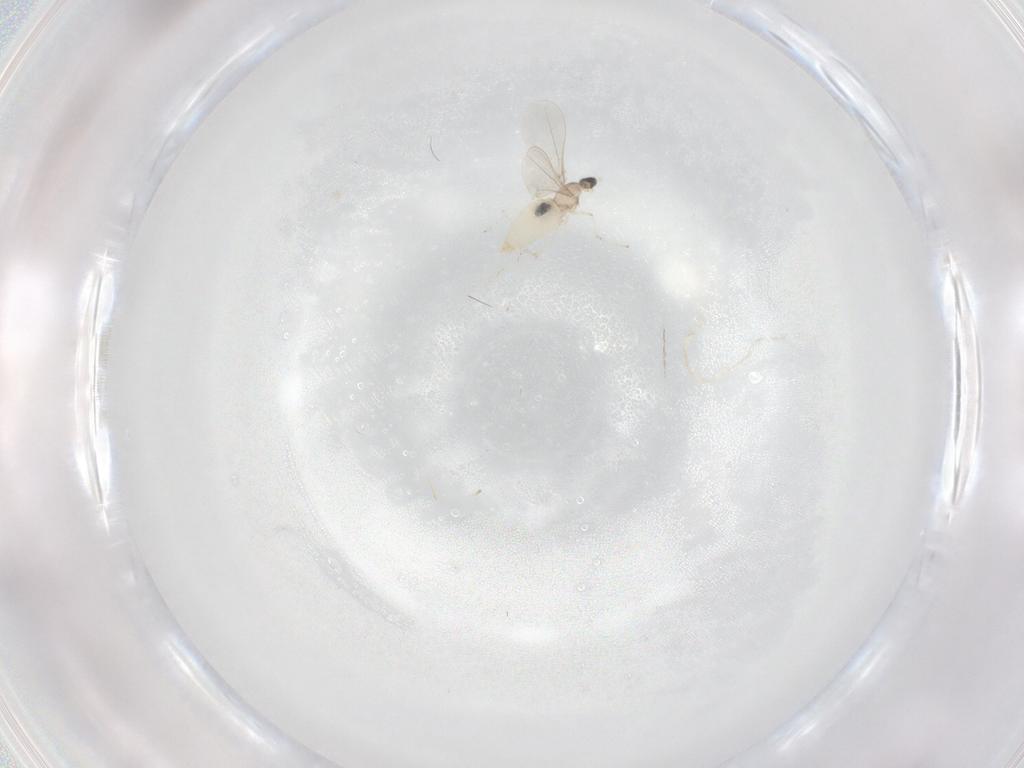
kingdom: Animalia
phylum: Arthropoda
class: Insecta
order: Diptera
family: Cecidomyiidae
